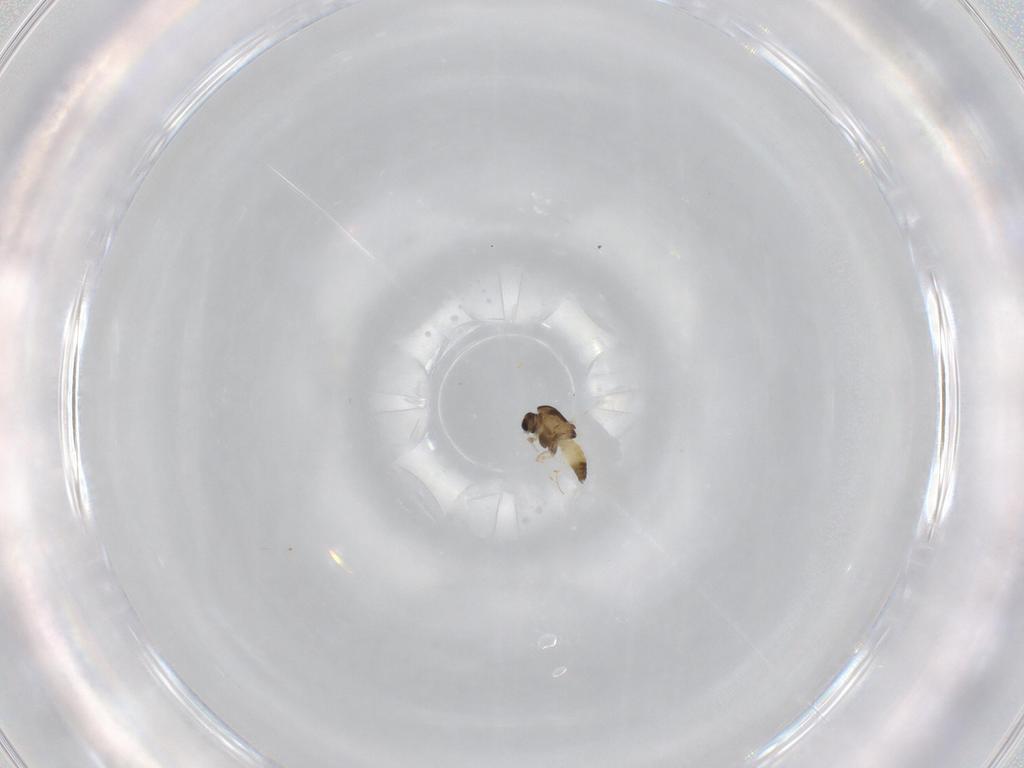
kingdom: Animalia
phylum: Arthropoda
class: Insecta
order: Diptera
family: Chironomidae
